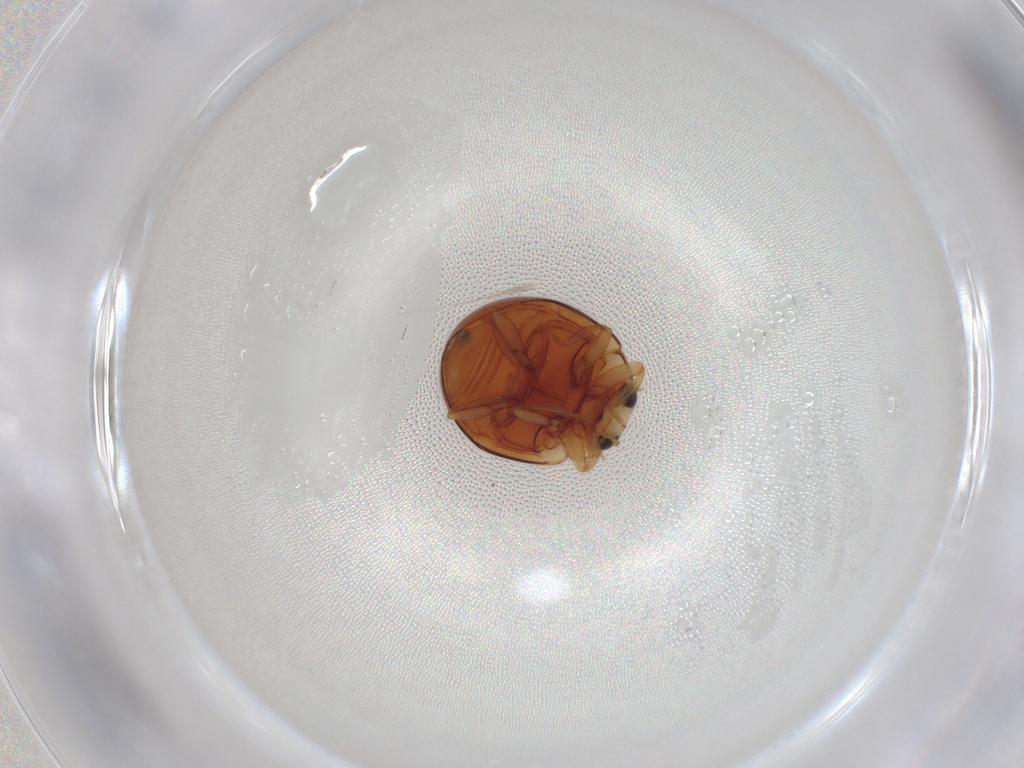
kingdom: Animalia
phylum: Arthropoda
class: Insecta
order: Coleoptera
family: Coccinellidae
